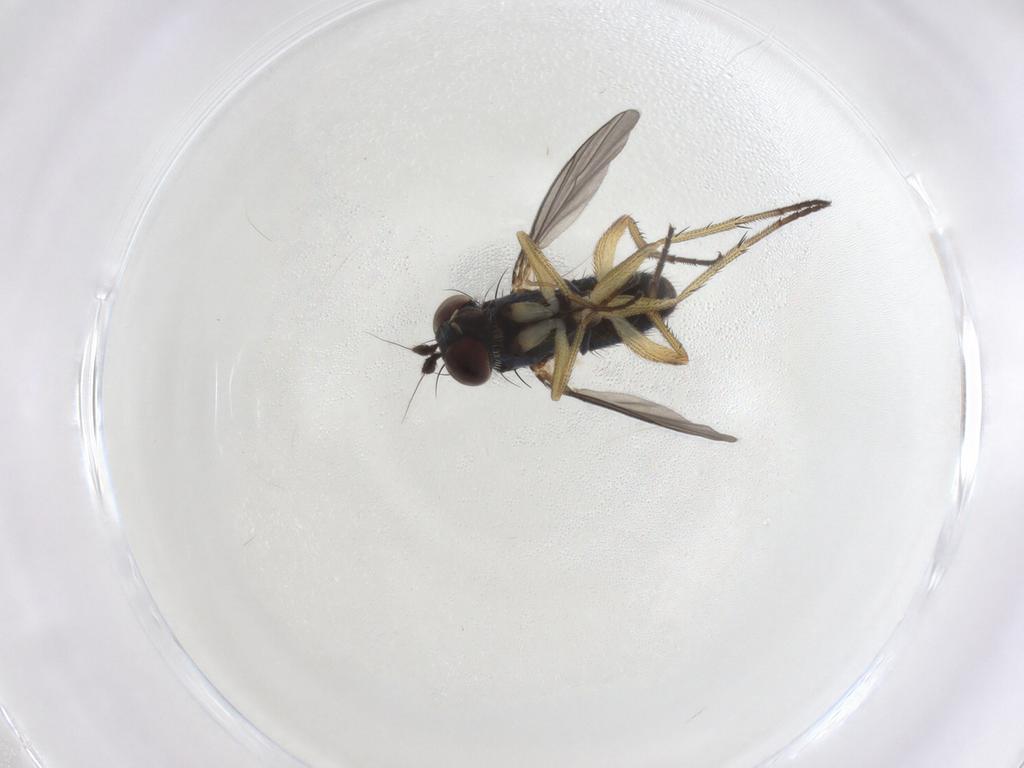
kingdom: Animalia
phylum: Arthropoda
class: Insecta
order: Diptera
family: Dolichopodidae
